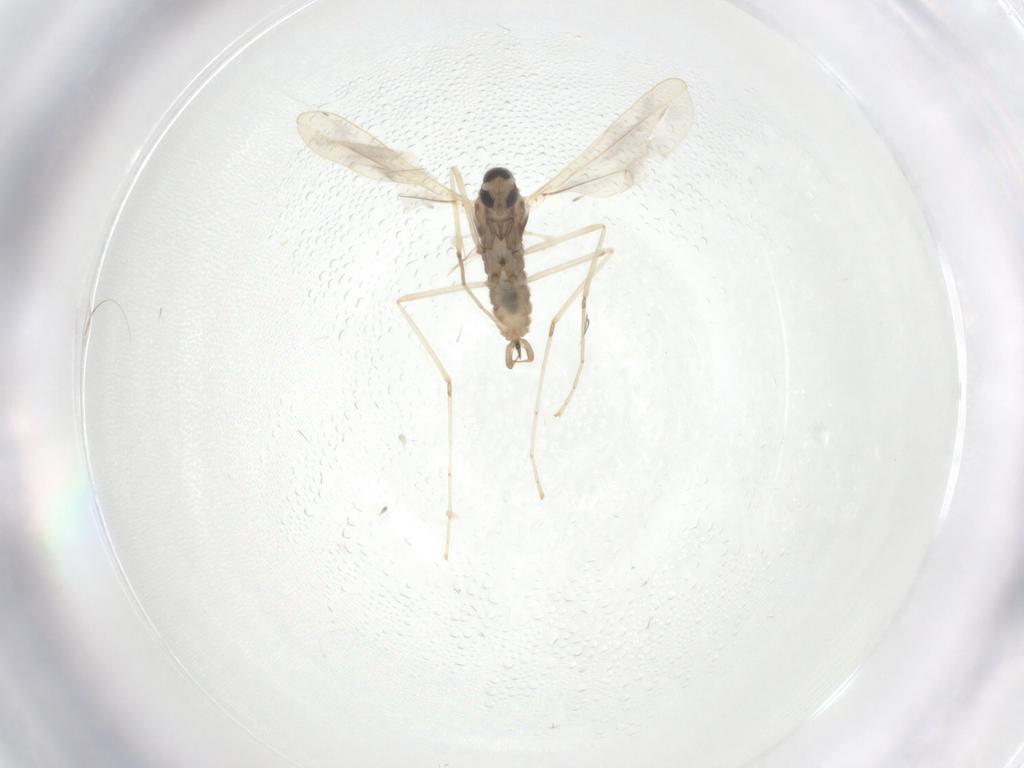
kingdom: Animalia
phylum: Arthropoda
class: Insecta
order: Diptera
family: Cecidomyiidae
